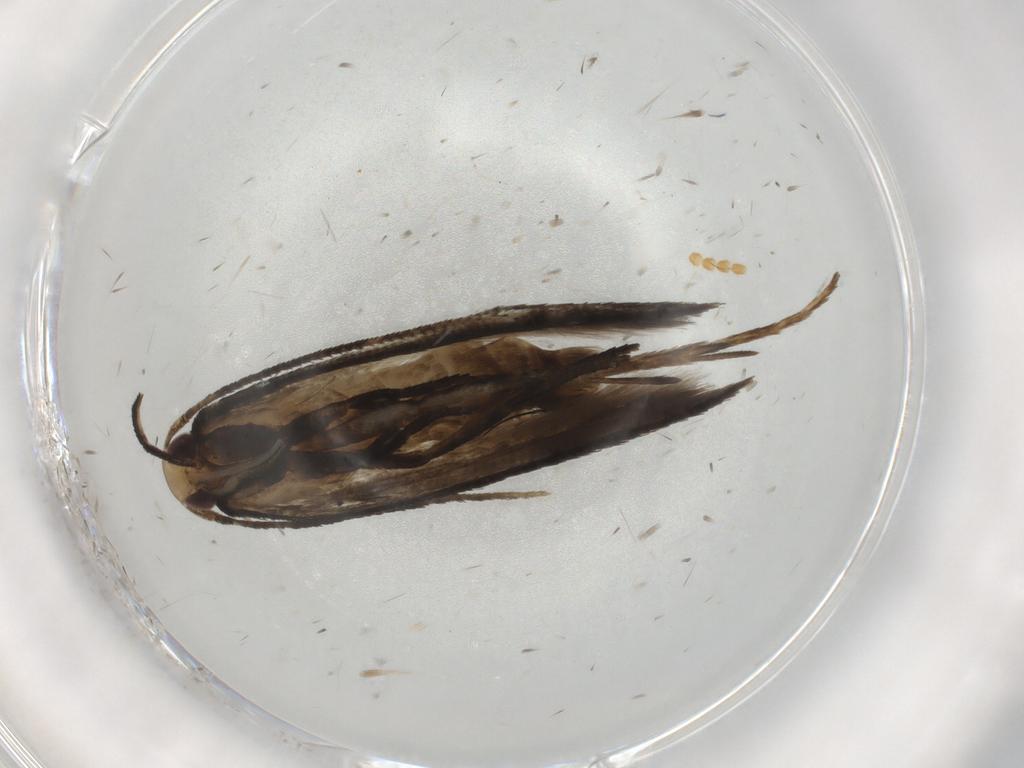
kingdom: Animalia
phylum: Arthropoda
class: Insecta
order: Lepidoptera
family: Cosmopterigidae
